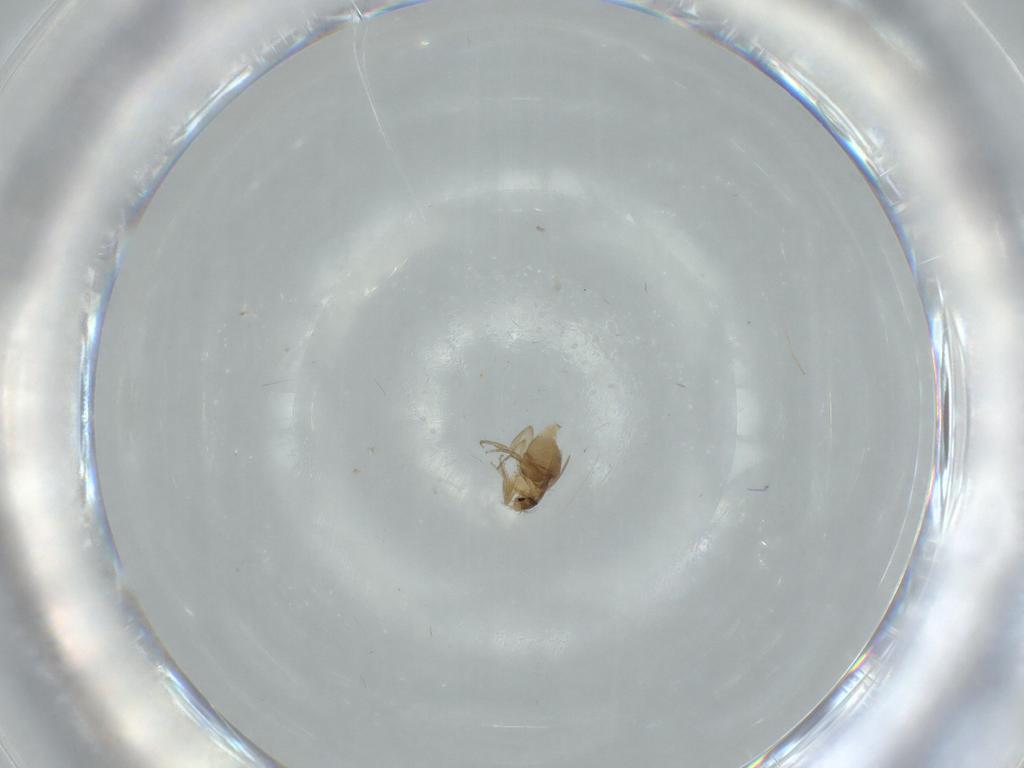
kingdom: Animalia
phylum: Arthropoda
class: Insecta
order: Diptera
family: Phoridae
